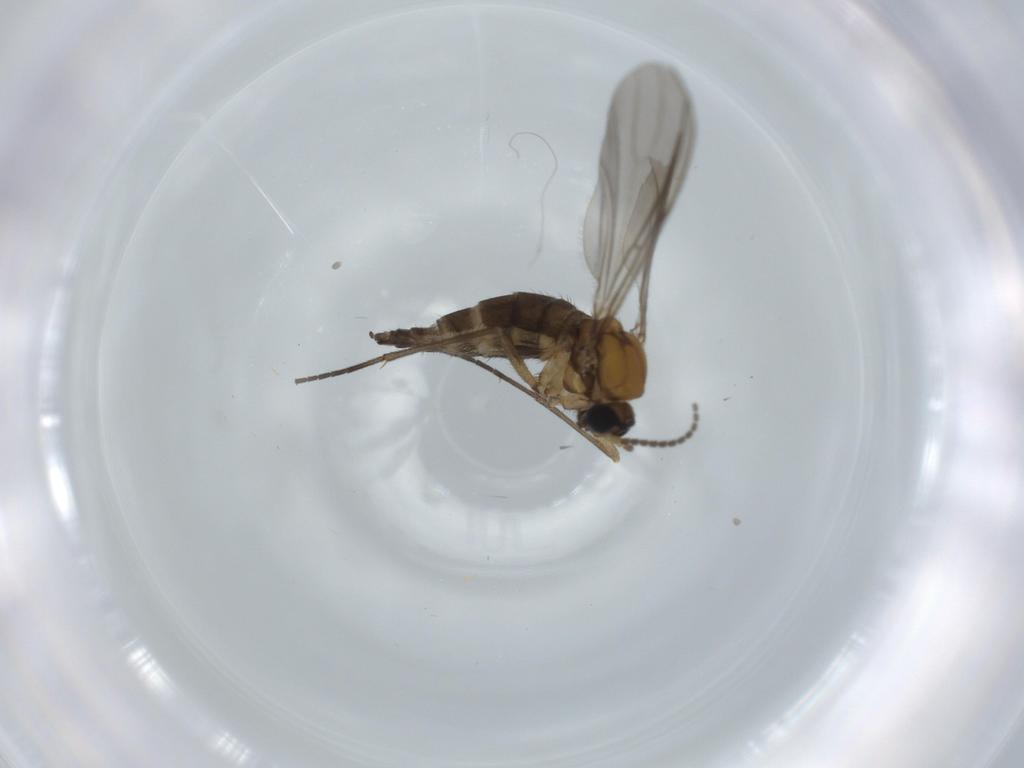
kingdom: Animalia
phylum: Arthropoda
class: Insecta
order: Diptera
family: Sciaridae
